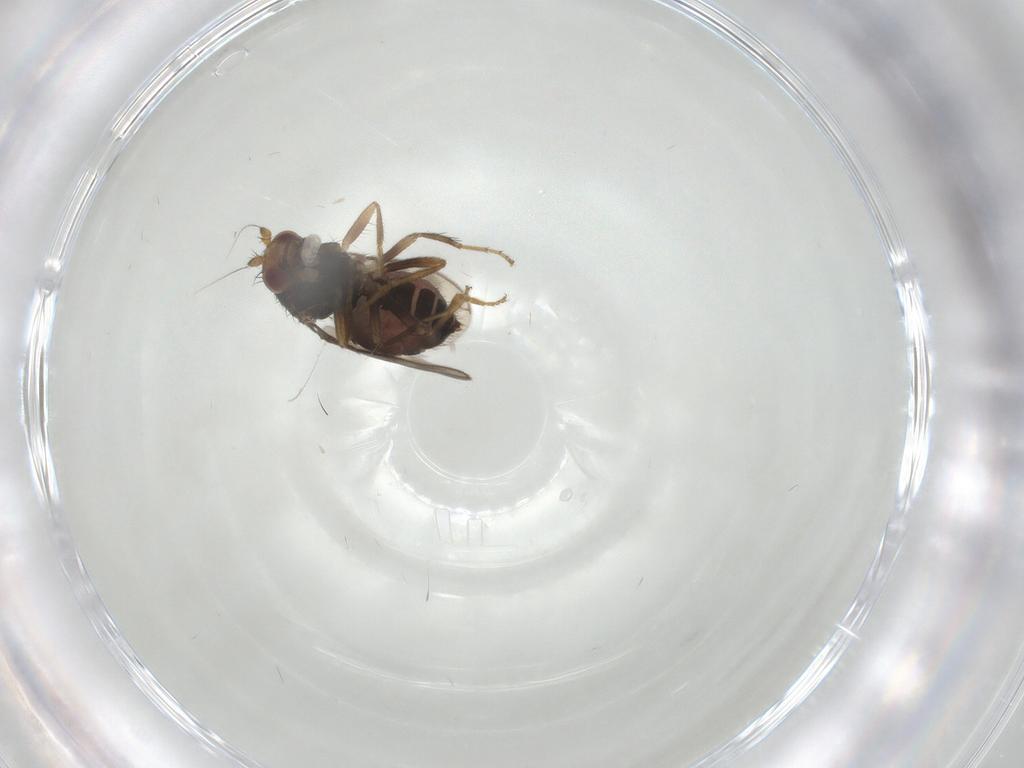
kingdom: Animalia
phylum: Arthropoda
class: Insecta
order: Diptera
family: Sphaeroceridae
